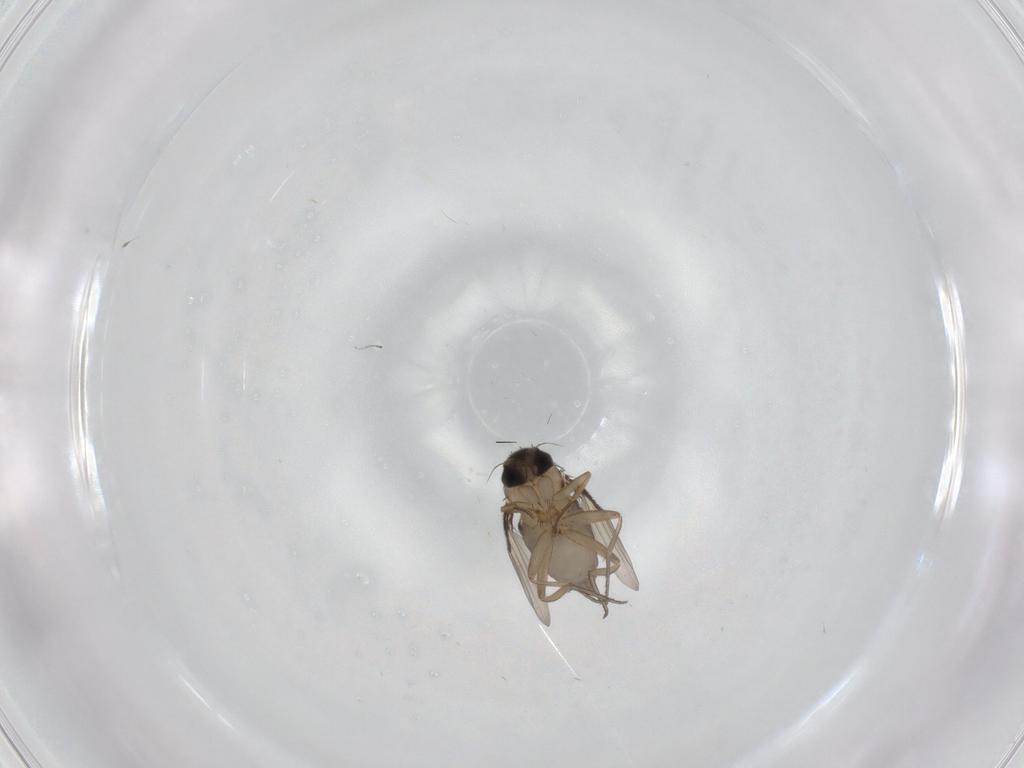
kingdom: Animalia
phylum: Arthropoda
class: Insecta
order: Diptera
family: Phoridae
